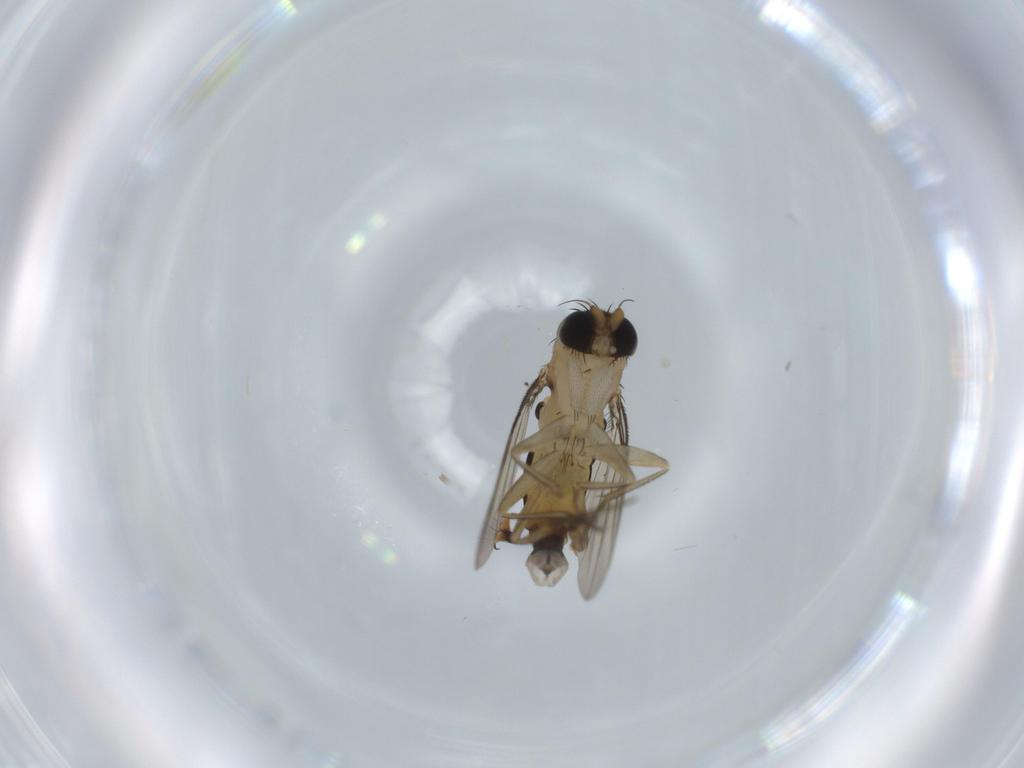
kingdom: Animalia
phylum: Arthropoda
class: Insecta
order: Diptera
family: Phoridae
